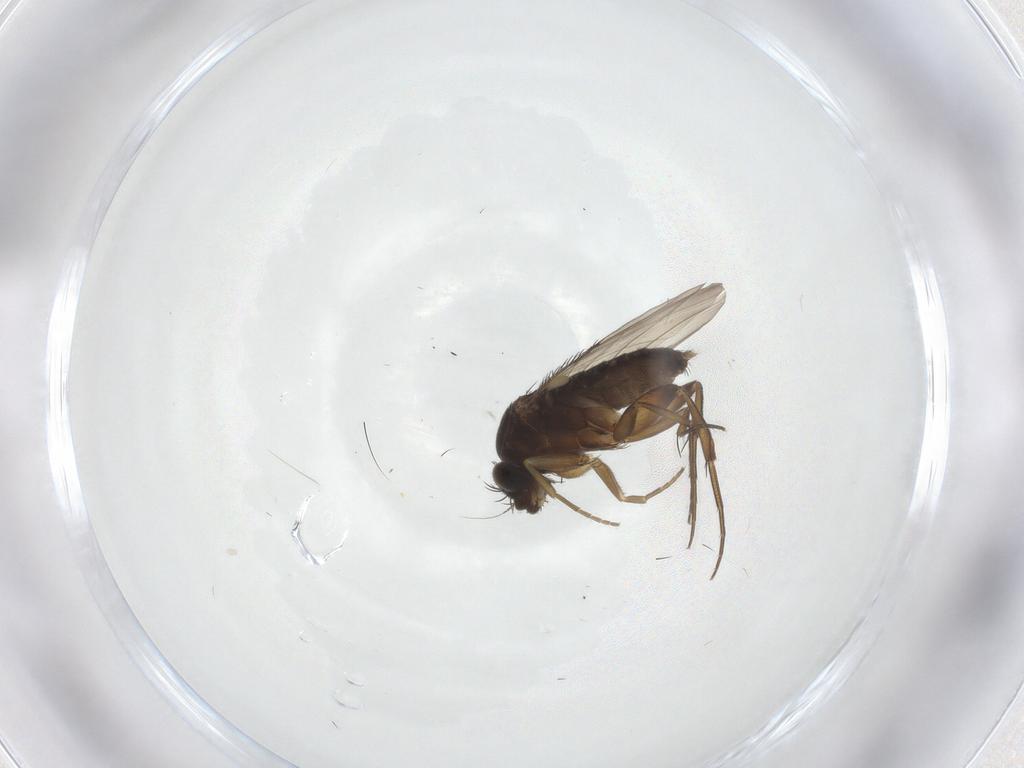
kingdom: Animalia
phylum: Arthropoda
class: Insecta
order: Diptera
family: Phoridae
